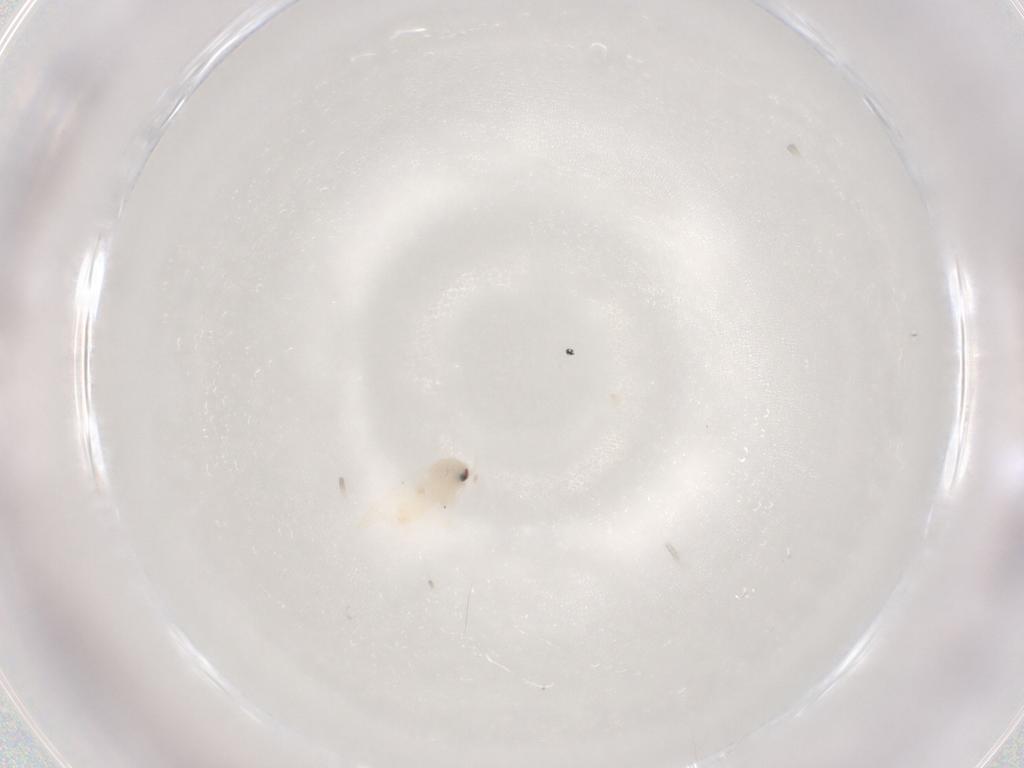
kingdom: Animalia
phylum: Arthropoda
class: Insecta
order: Hemiptera
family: Aleyrodidae
